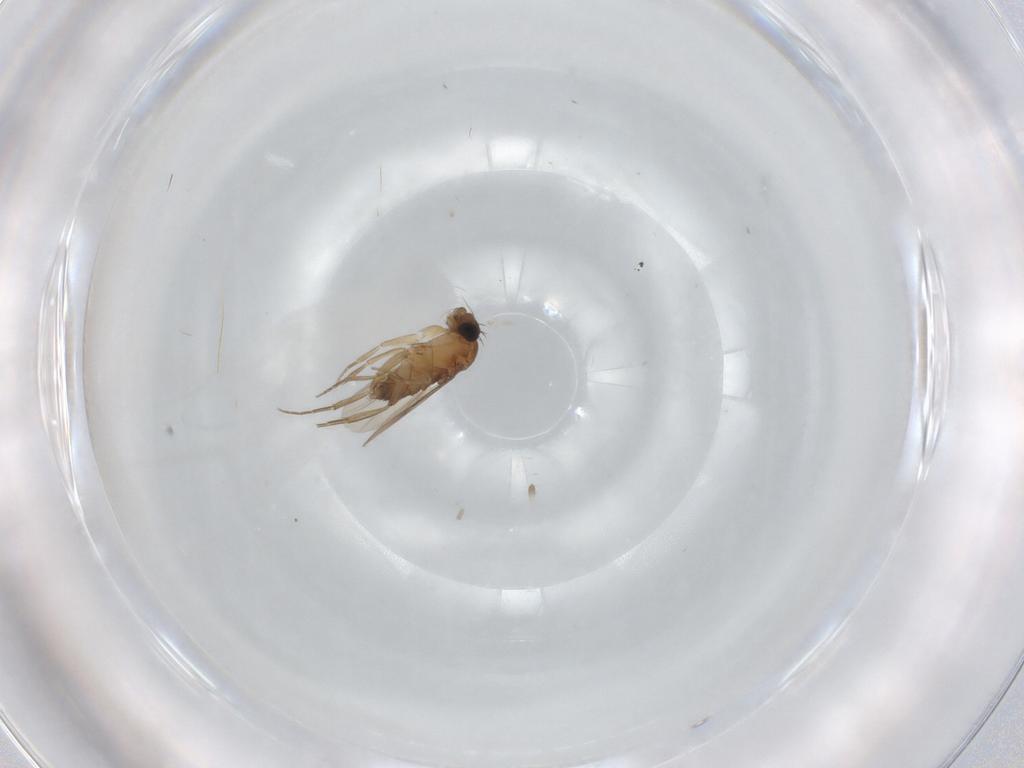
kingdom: Animalia
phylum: Arthropoda
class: Insecta
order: Diptera
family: Phoridae
